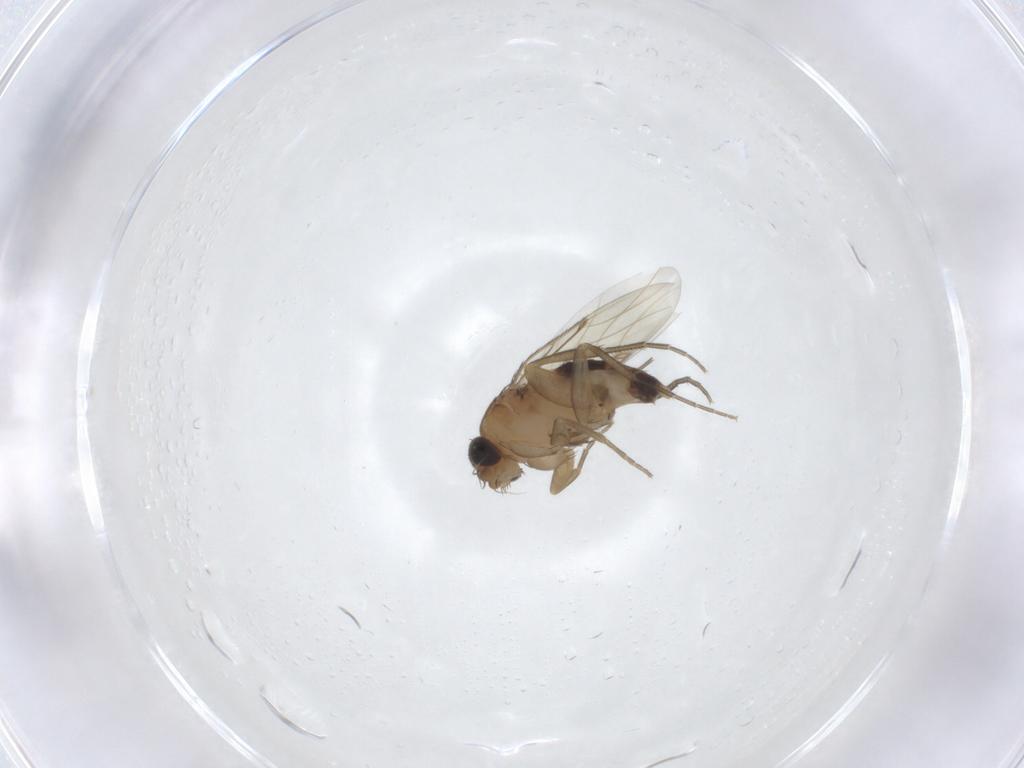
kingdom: Animalia
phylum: Arthropoda
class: Insecta
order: Diptera
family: Phoridae
